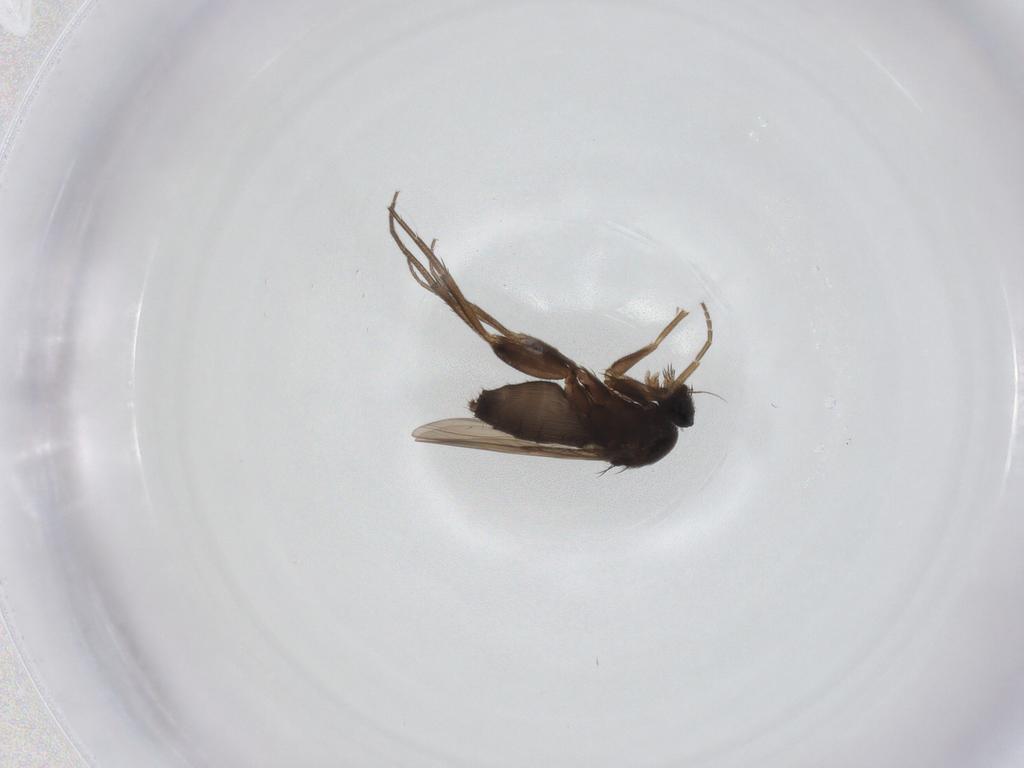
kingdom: Animalia
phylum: Arthropoda
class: Insecta
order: Diptera
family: Phoridae
